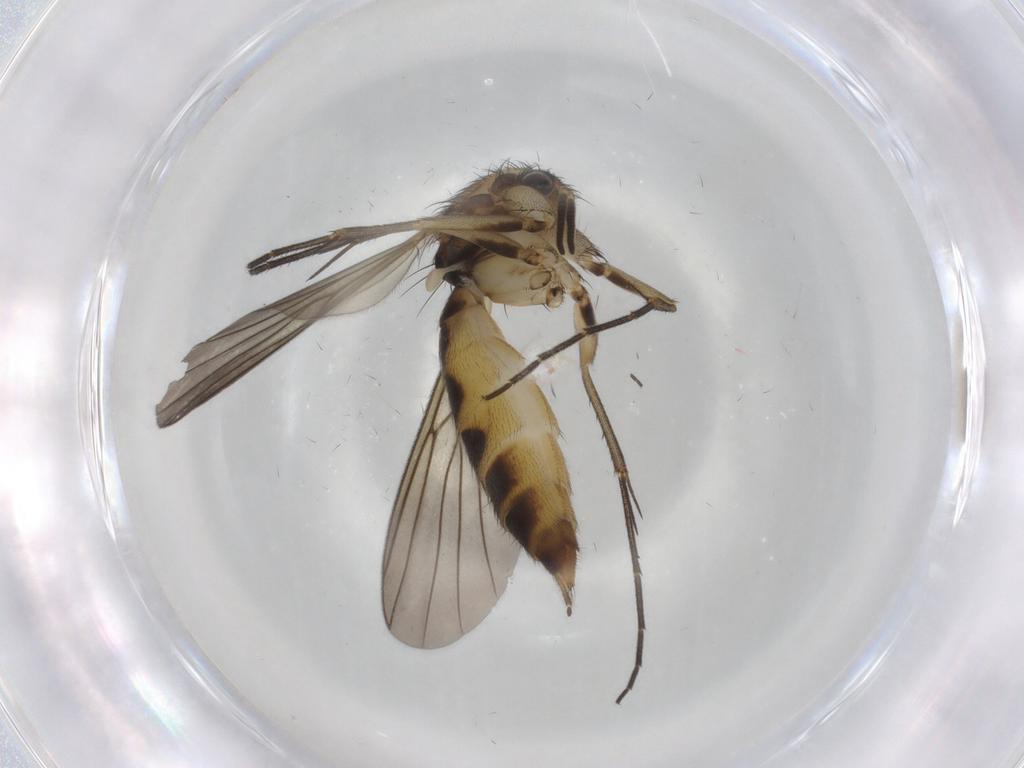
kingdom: Animalia
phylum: Arthropoda
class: Insecta
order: Diptera
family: Mycetophilidae
